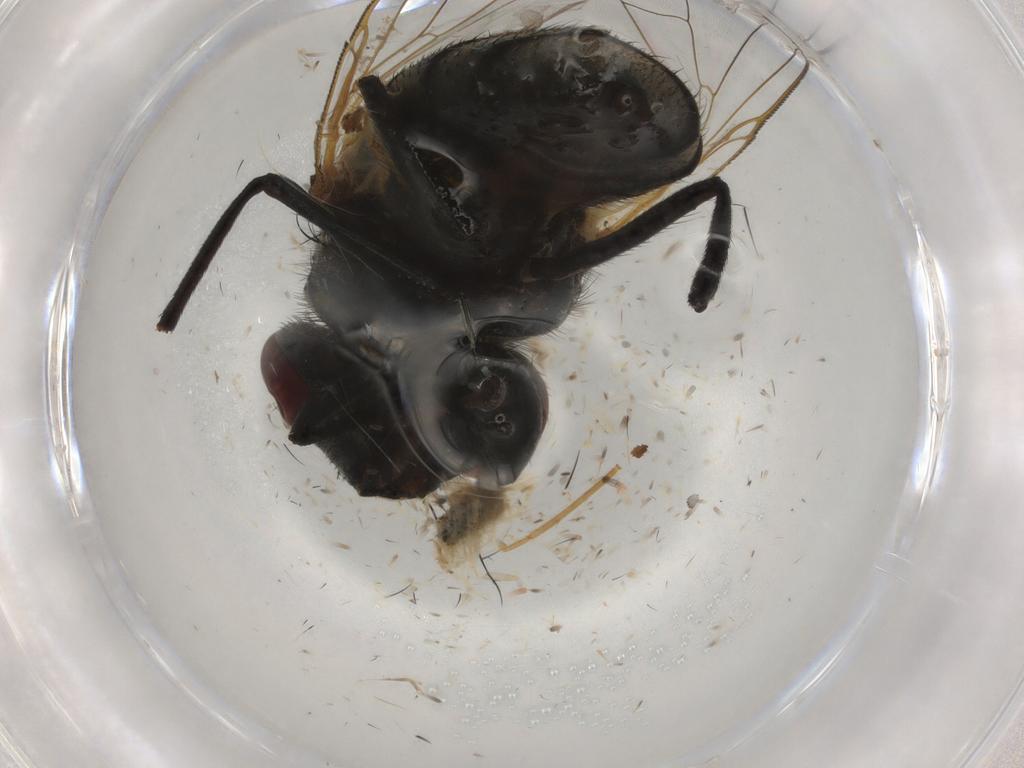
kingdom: Animalia
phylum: Arthropoda
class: Insecta
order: Diptera
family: Muscidae
